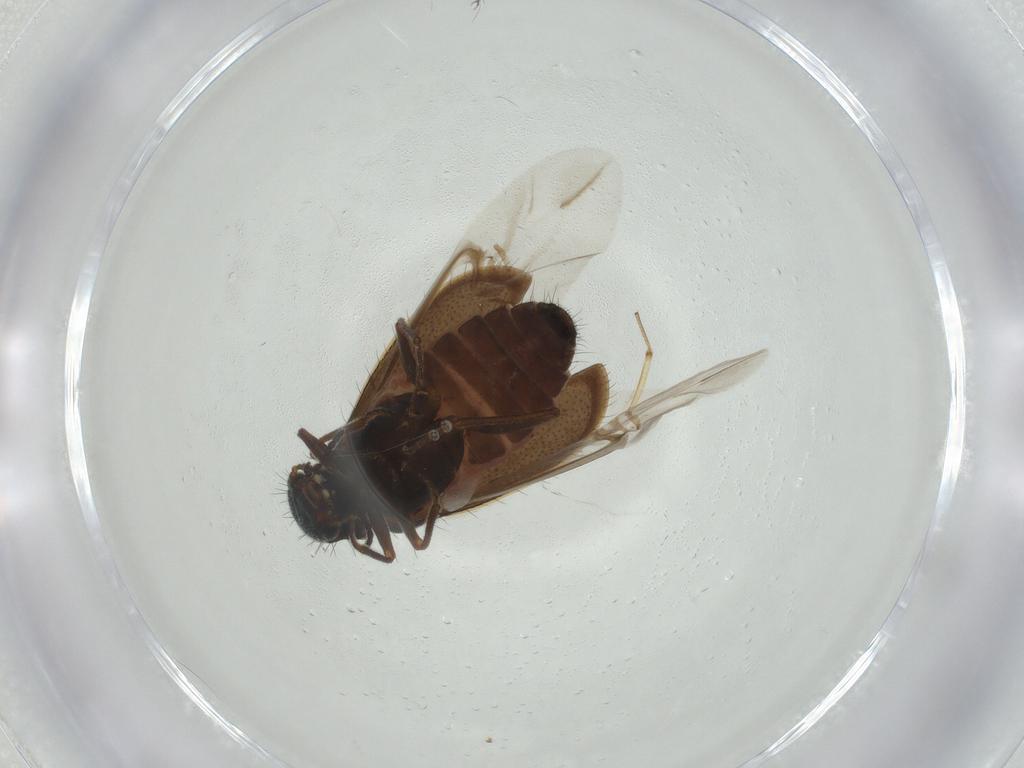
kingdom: Animalia
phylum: Arthropoda
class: Insecta
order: Coleoptera
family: Melyridae
